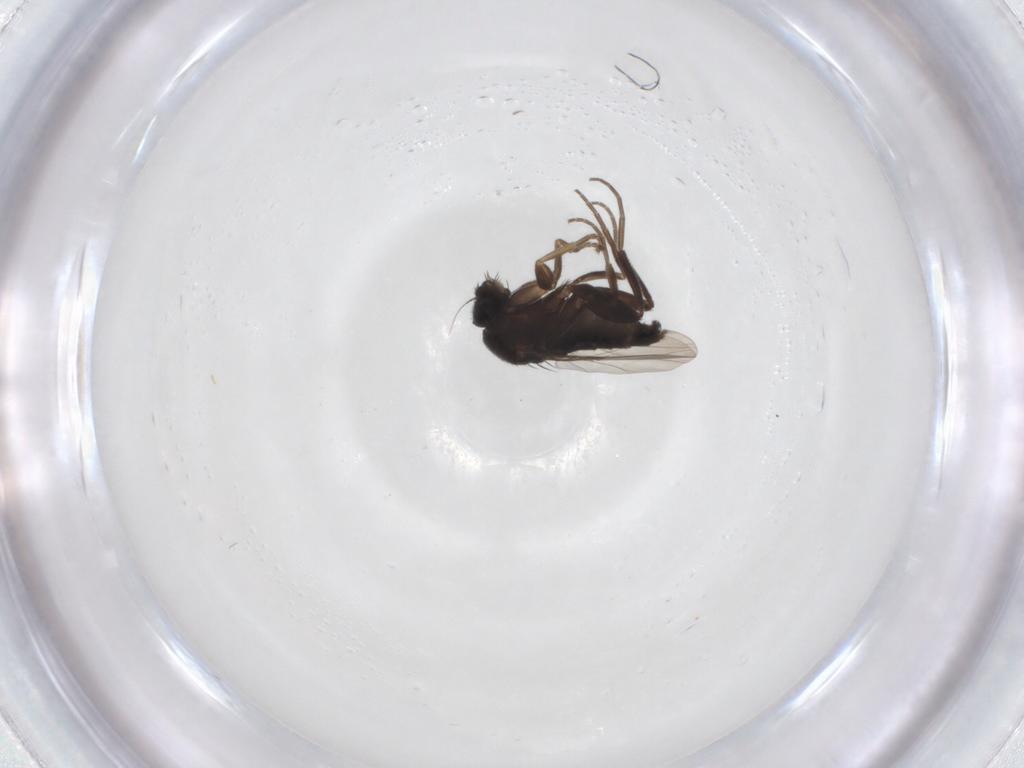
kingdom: Animalia
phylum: Arthropoda
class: Insecta
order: Diptera
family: Phoridae
